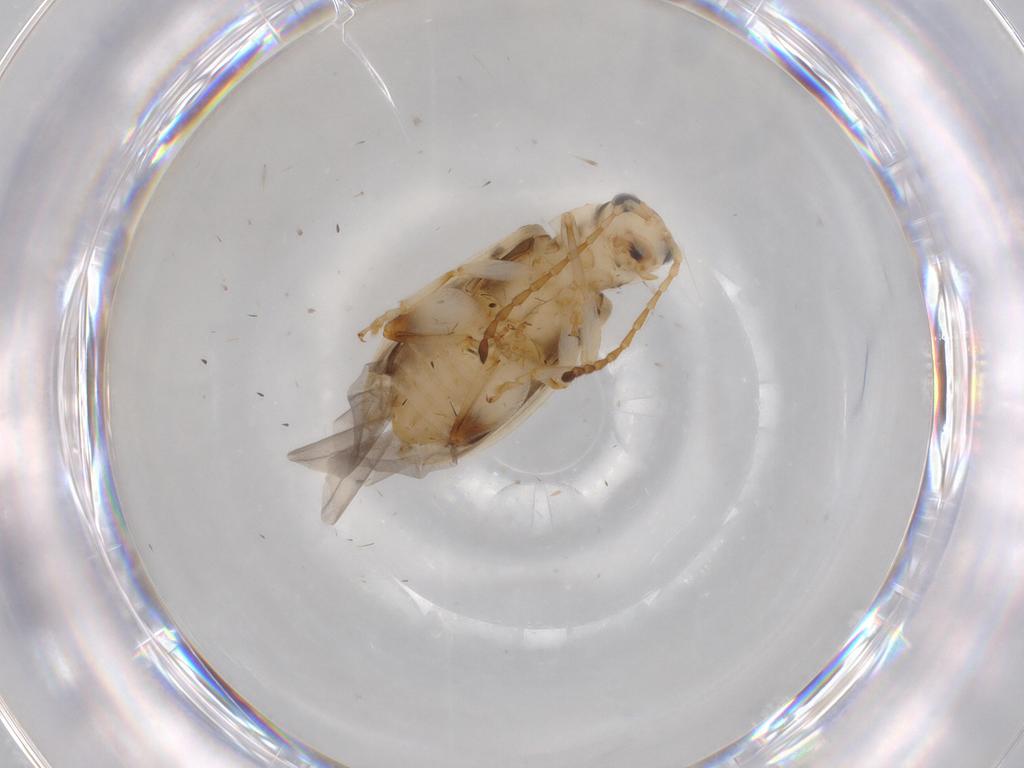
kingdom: Animalia
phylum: Arthropoda
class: Insecta
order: Coleoptera
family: Chrysomelidae
